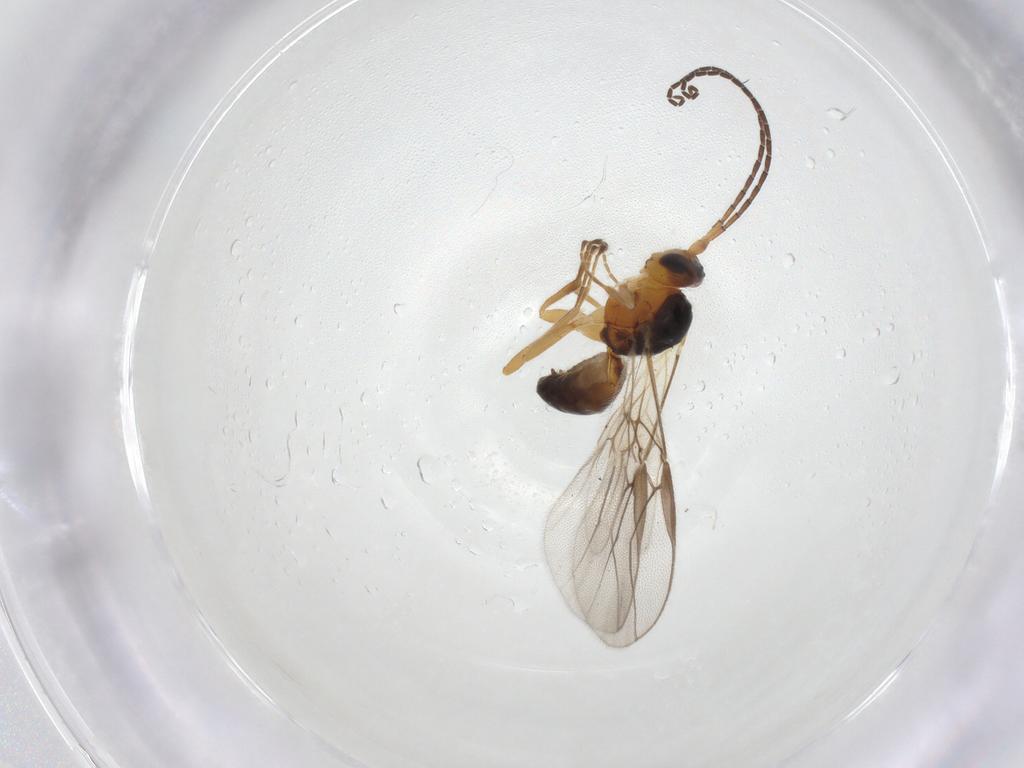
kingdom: Animalia
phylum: Arthropoda
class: Insecta
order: Hymenoptera
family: Braconidae
